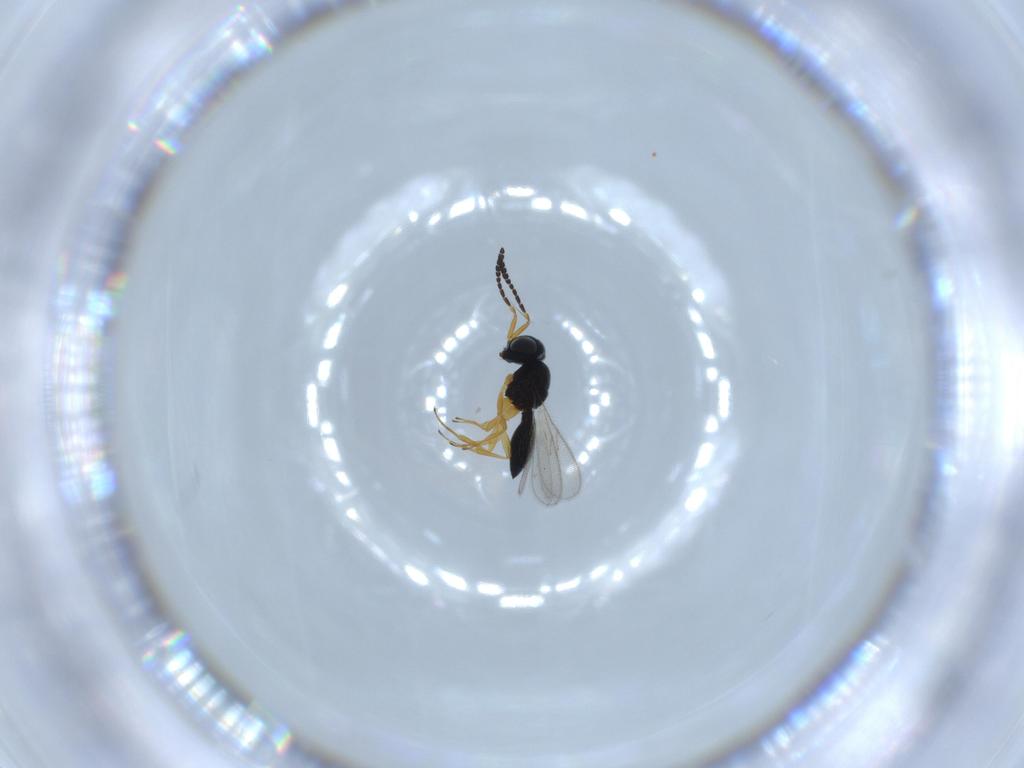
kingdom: Animalia
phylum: Arthropoda
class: Insecta
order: Hymenoptera
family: Scelionidae
